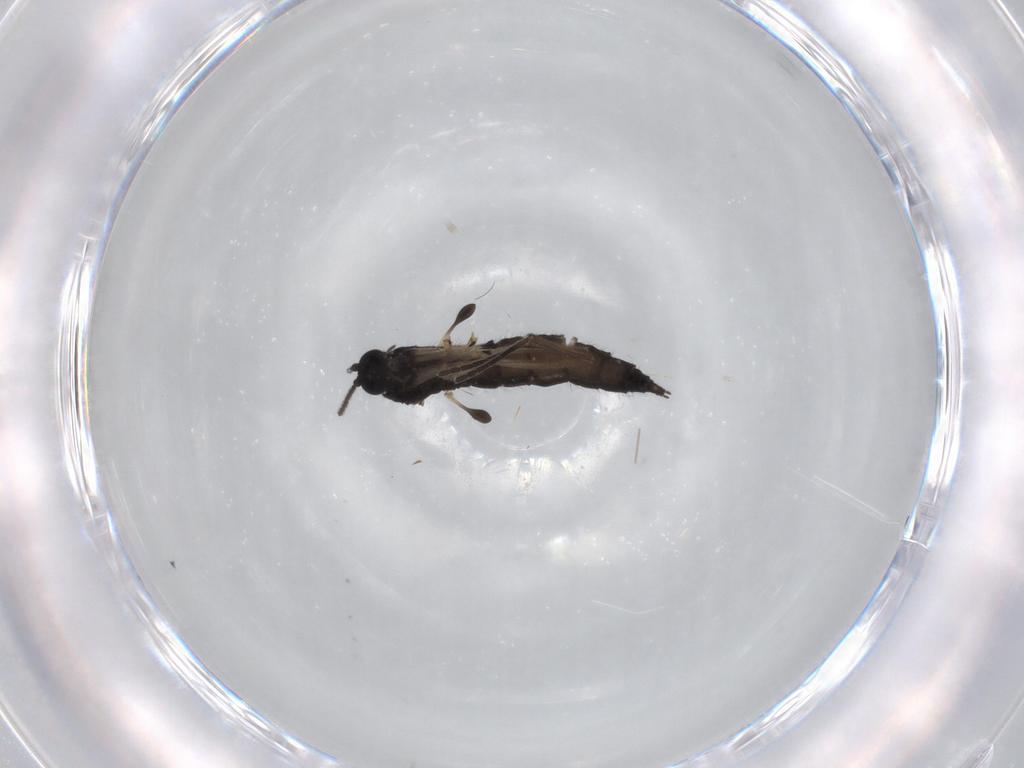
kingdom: Animalia
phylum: Arthropoda
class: Insecta
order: Diptera
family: Sciaridae
